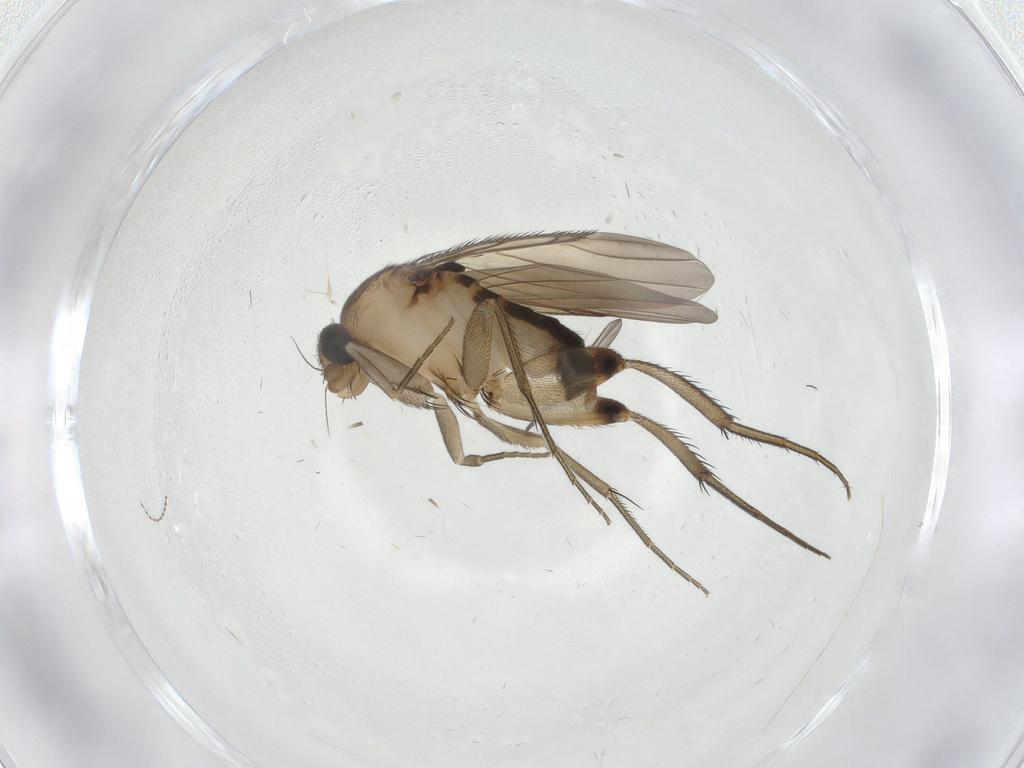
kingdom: Animalia
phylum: Arthropoda
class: Insecta
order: Diptera
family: Phoridae
